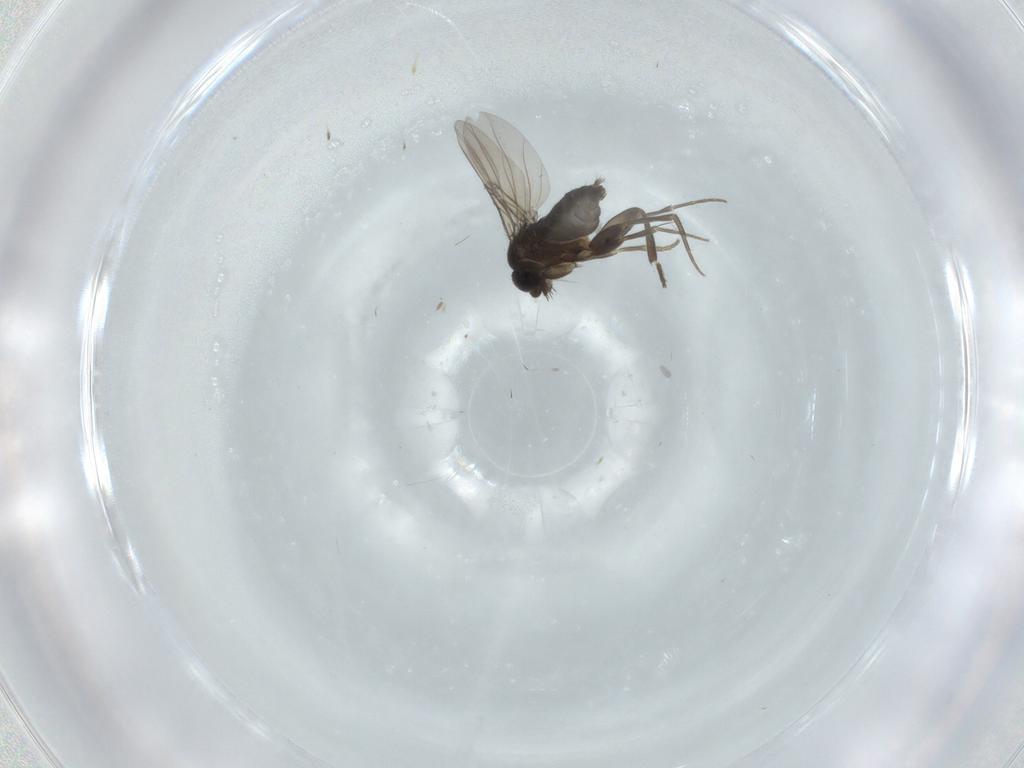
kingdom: Animalia
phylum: Arthropoda
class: Insecta
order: Diptera
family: Phoridae
